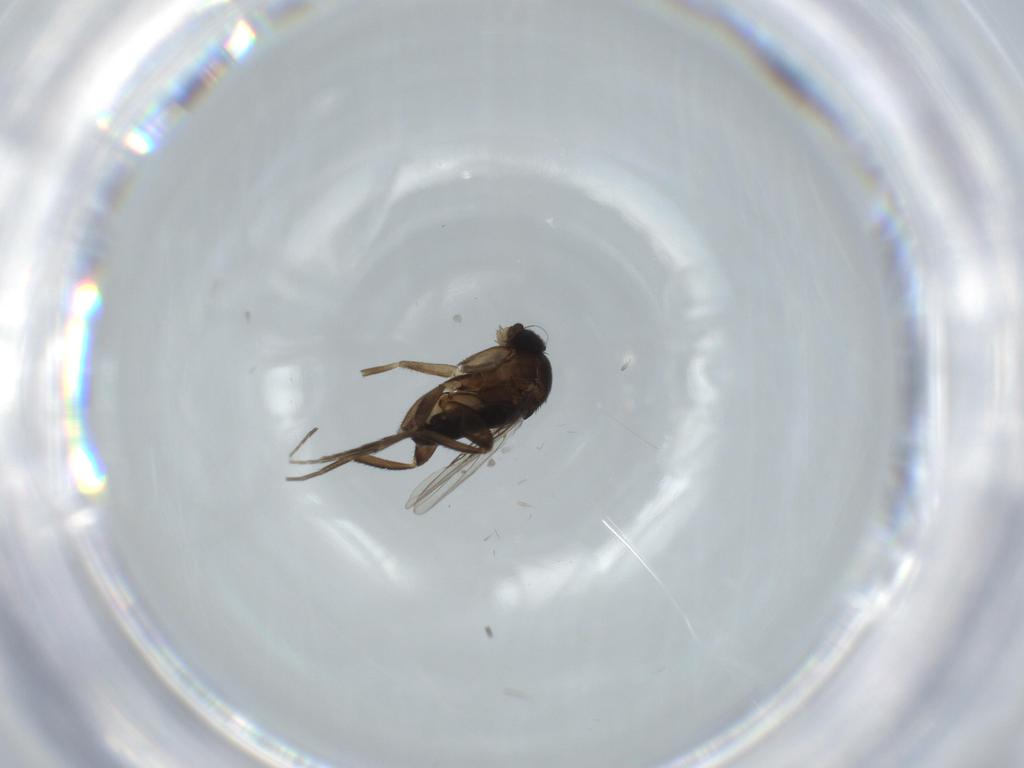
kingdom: Animalia
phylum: Arthropoda
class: Insecta
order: Diptera
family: Phoridae
